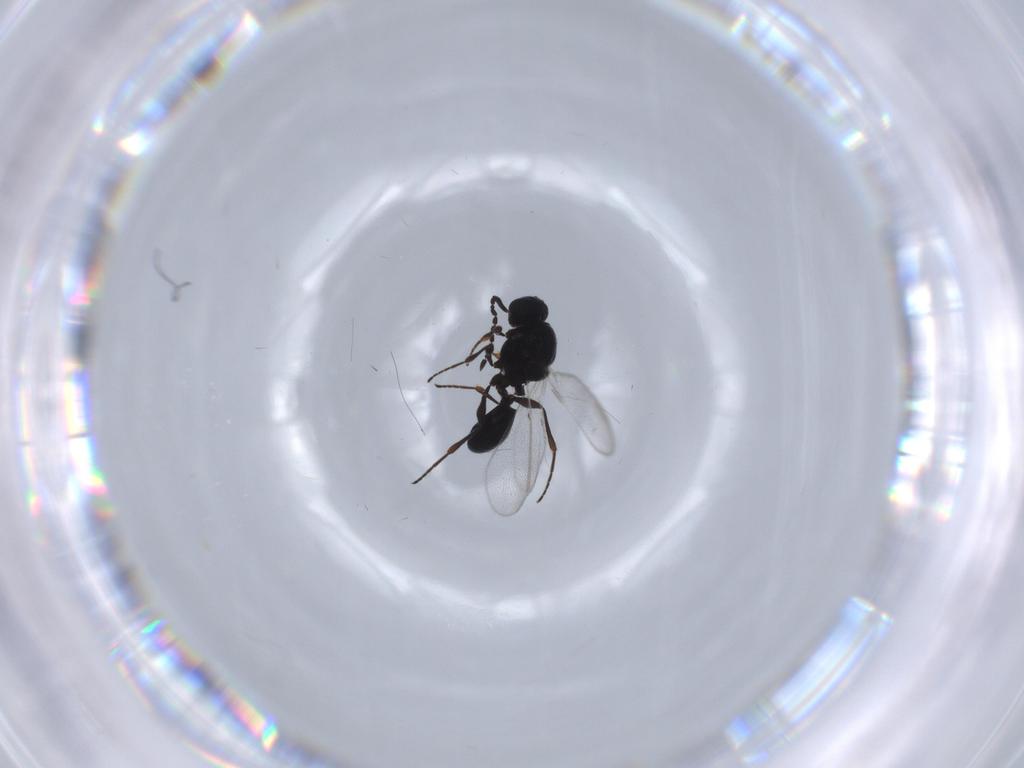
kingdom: Animalia
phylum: Arthropoda
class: Insecta
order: Hymenoptera
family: Platygastridae
